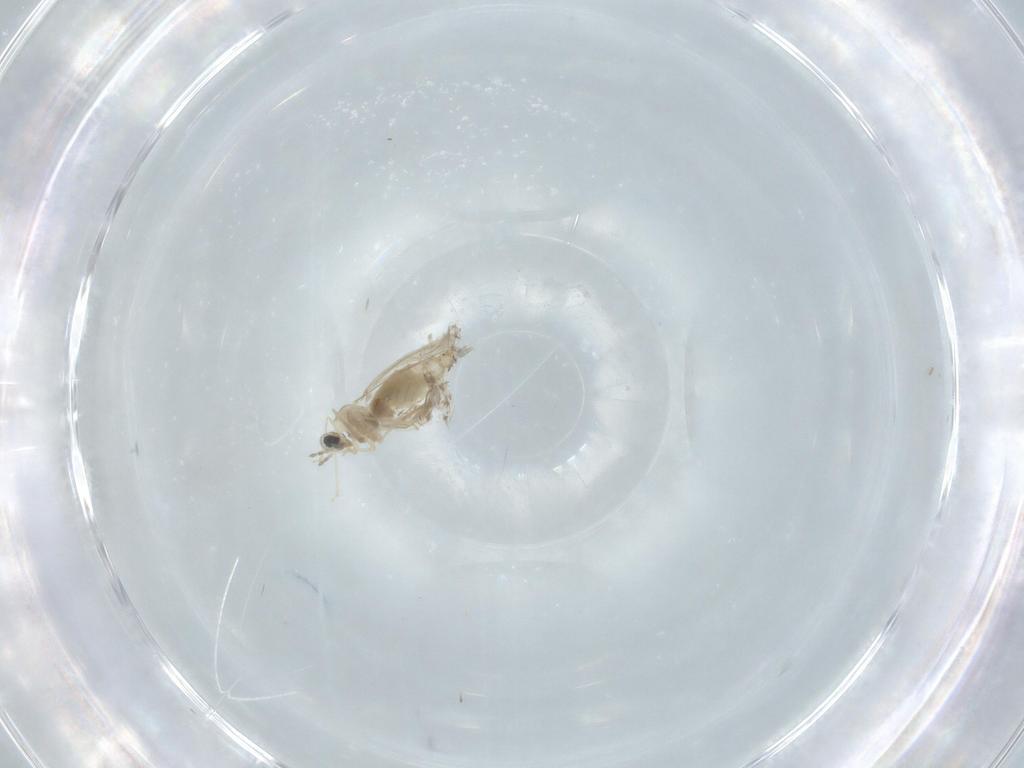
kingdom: Animalia
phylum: Arthropoda
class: Insecta
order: Diptera
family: Cecidomyiidae
